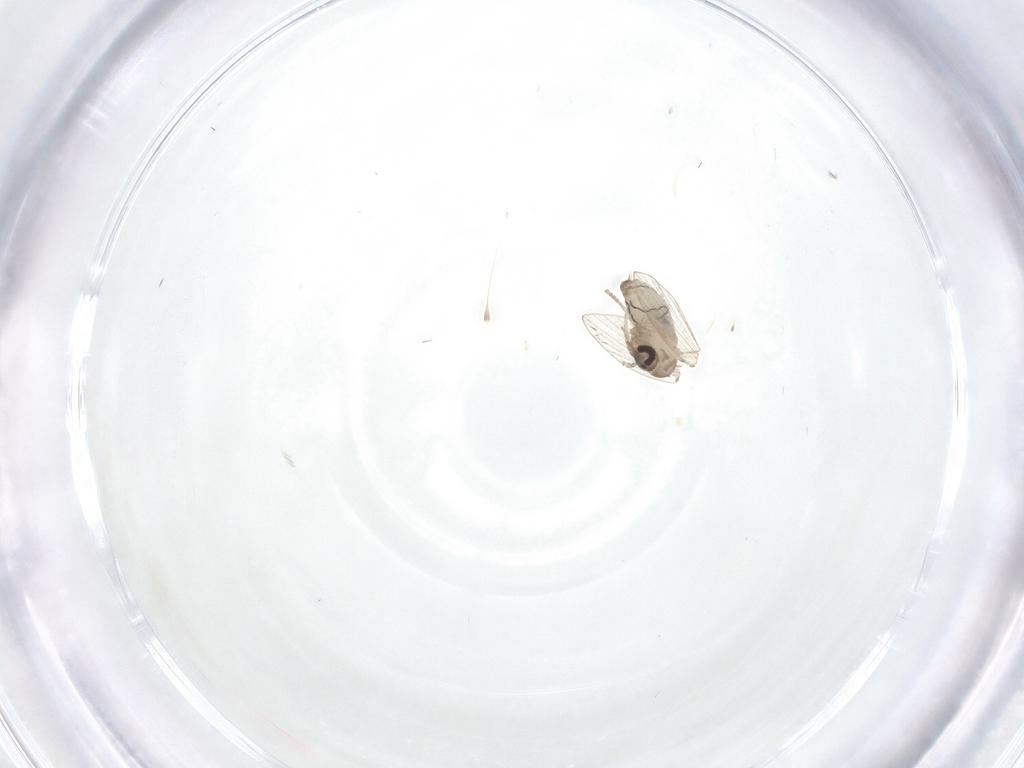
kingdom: Animalia
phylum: Arthropoda
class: Insecta
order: Diptera
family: Psychodidae
